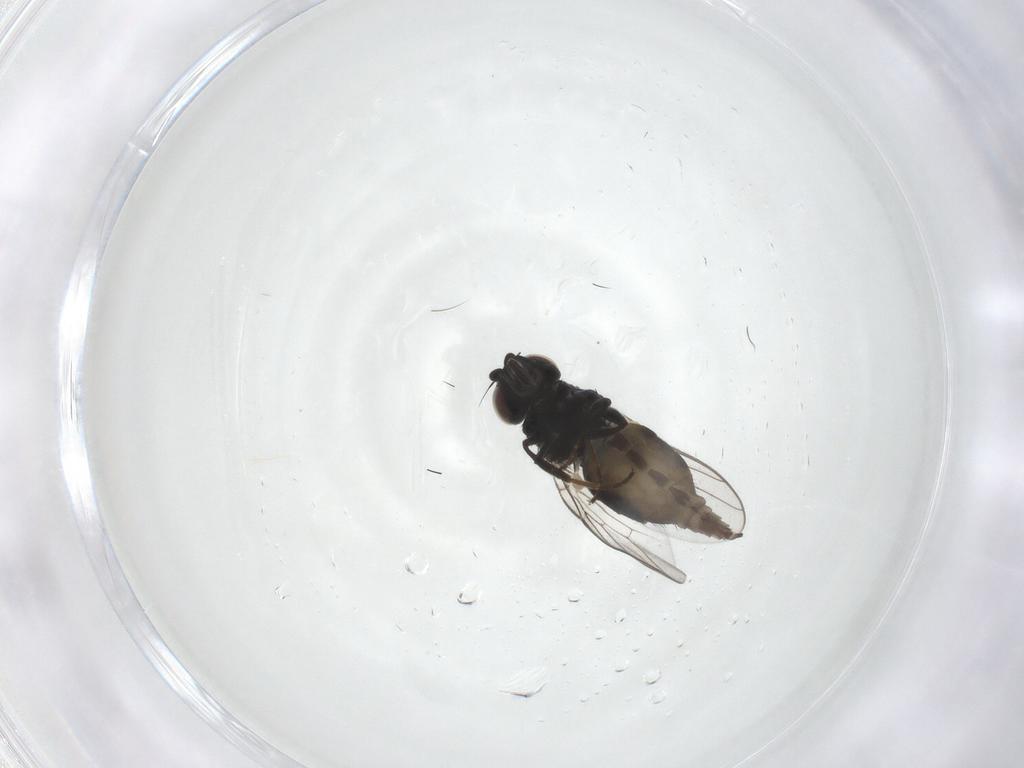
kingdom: Animalia
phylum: Arthropoda
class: Insecta
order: Diptera
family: Chloropidae
